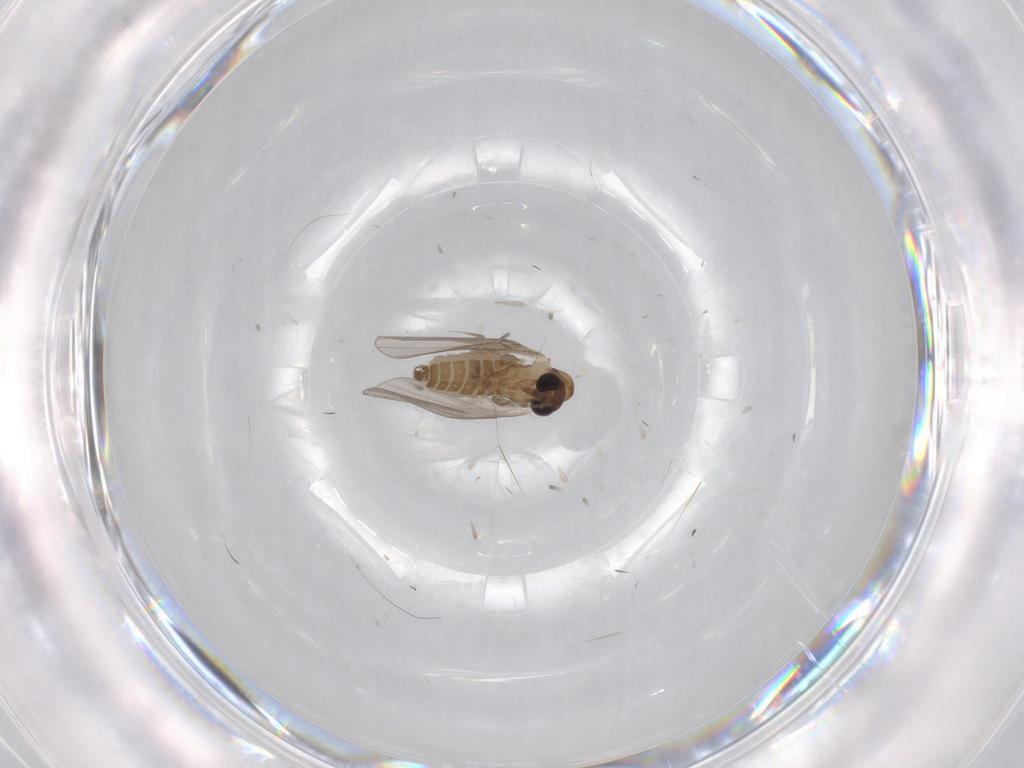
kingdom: Animalia
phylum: Arthropoda
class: Insecta
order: Diptera
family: Cecidomyiidae
